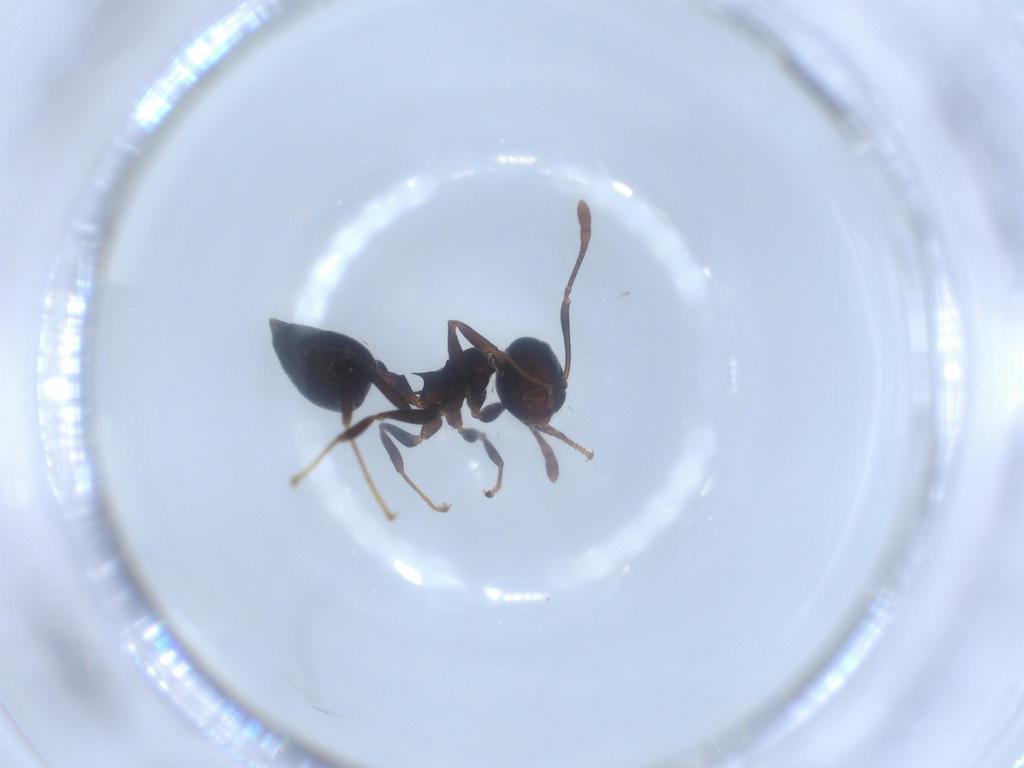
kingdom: Animalia
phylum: Arthropoda
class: Insecta
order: Hymenoptera
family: Formicidae
